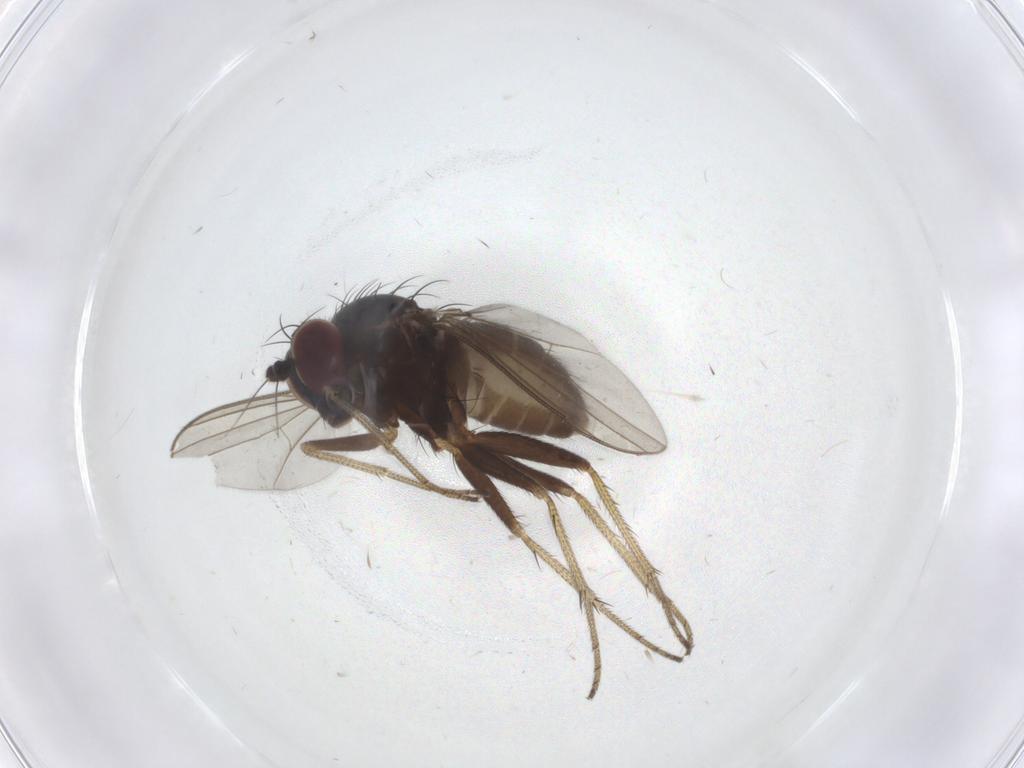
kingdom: Animalia
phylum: Arthropoda
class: Insecta
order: Diptera
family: Dolichopodidae
